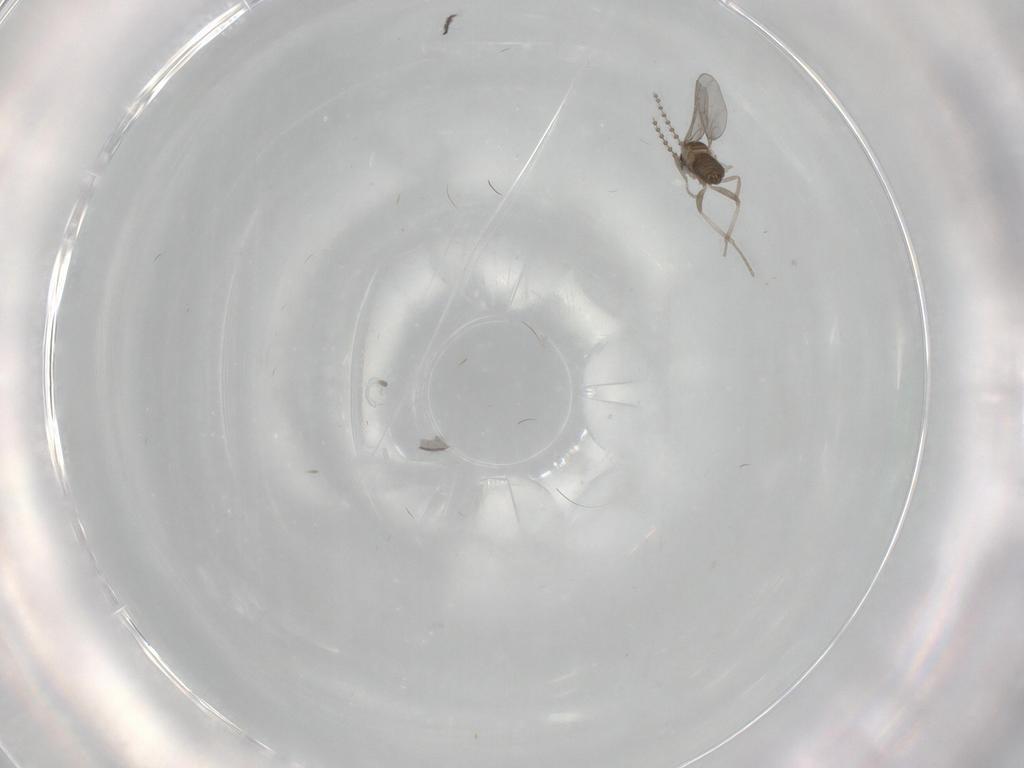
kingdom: Animalia
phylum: Arthropoda
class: Insecta
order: Diptera
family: Cecidomyiidae
